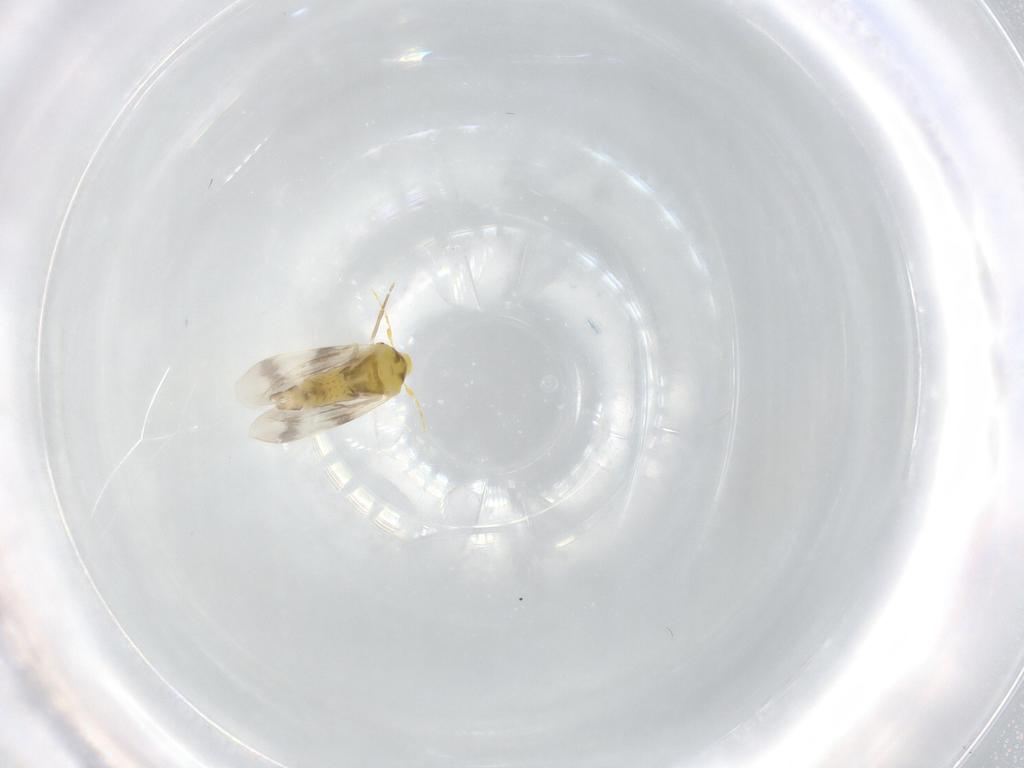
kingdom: Animalia
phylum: Arthropoda
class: Insecta
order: Hemiptera
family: Aleyrodidae
